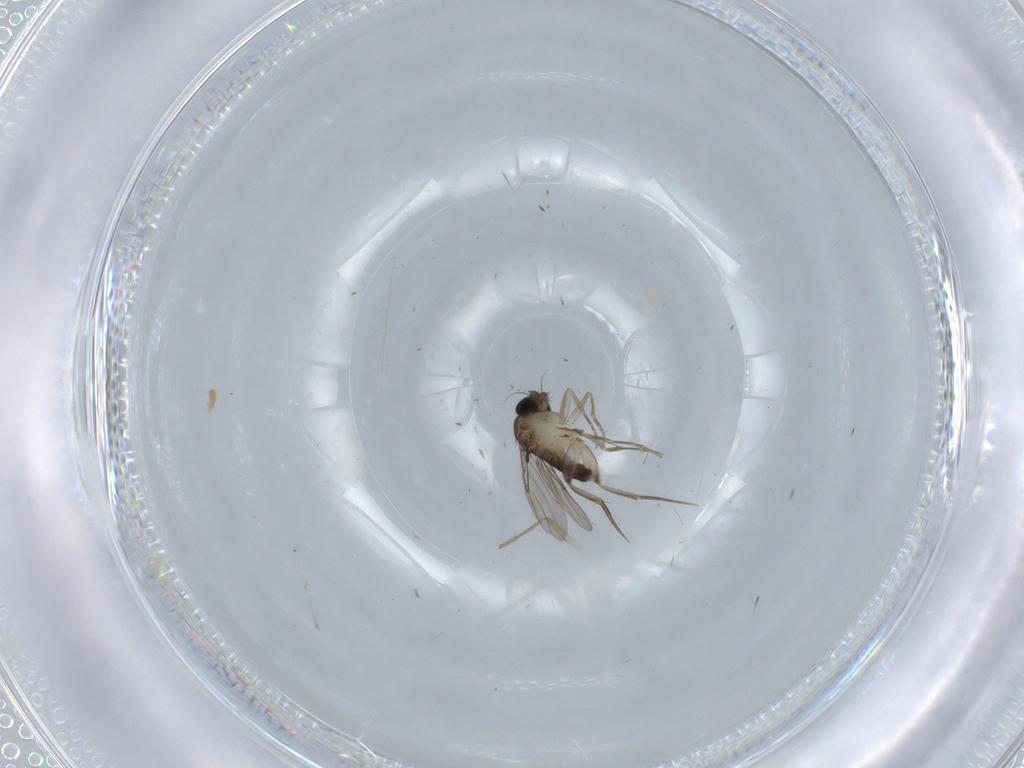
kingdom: Animalia
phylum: Arthropoda
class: Insecta
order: Diptera
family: Phoridae
